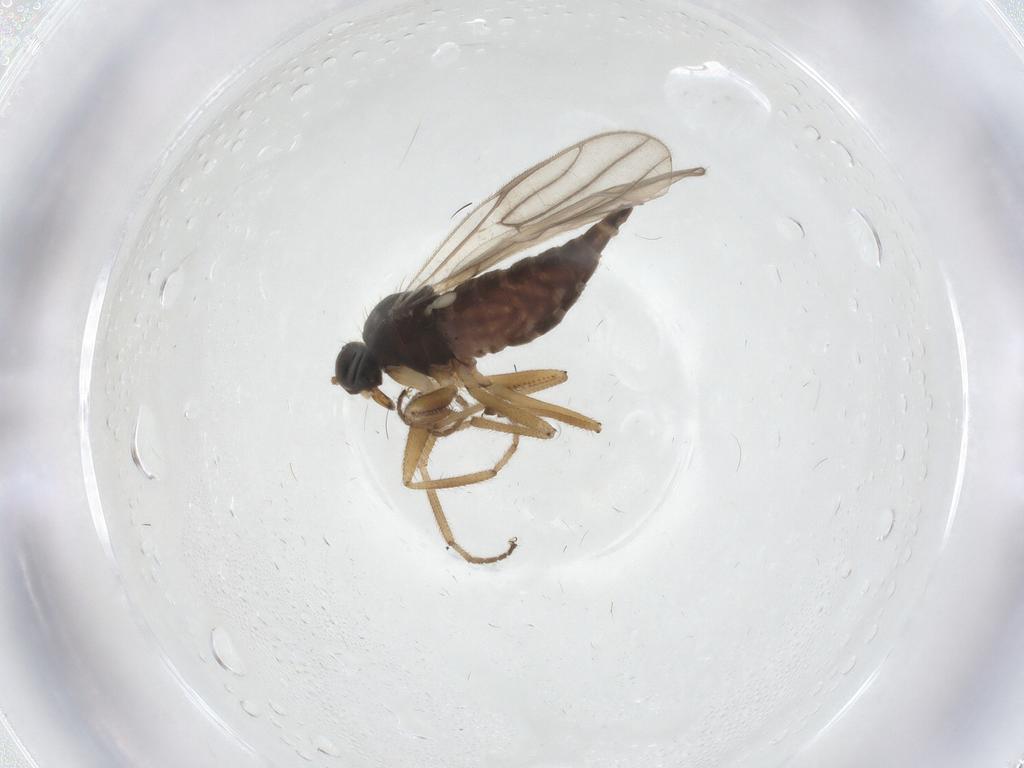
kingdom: Animalia
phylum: Arthropoda
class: Insecta
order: Diptera
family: Hybotidae
